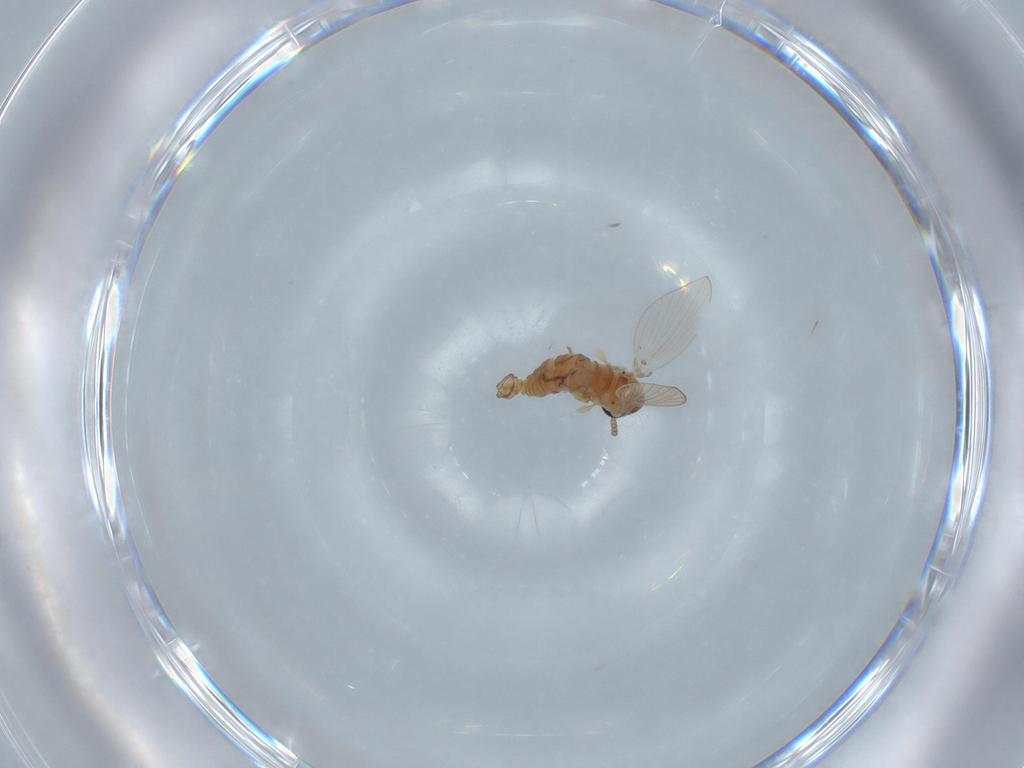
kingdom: Animalia
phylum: Arthropoda
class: Insecta
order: Diptera
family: Psychodidae
